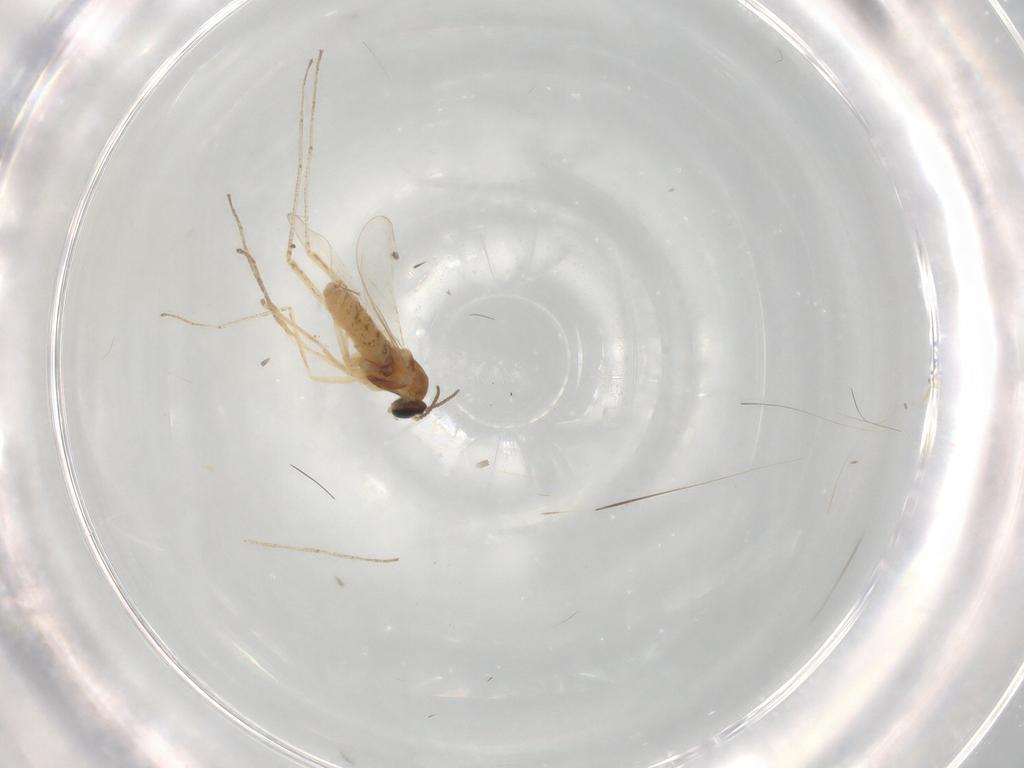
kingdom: Animalia
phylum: Arthropoda
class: Insecta
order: Diptera
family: Cecidomyiidae
